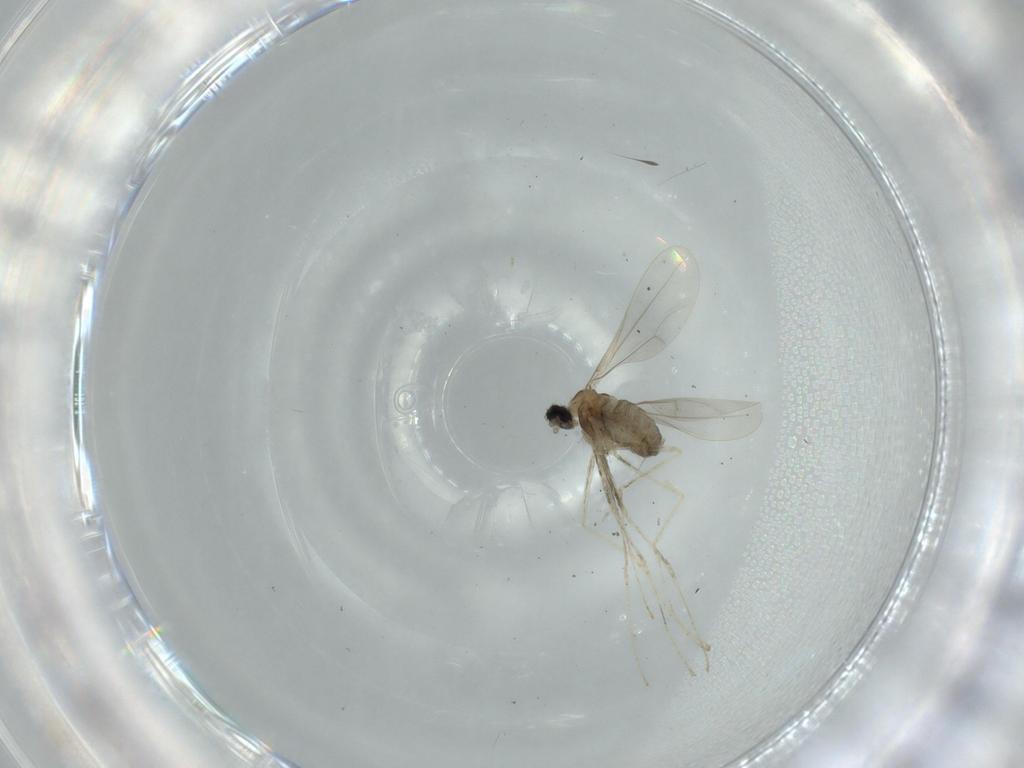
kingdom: Animalia
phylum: Arthropoda
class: Insecta
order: Diptera
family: Cecidomyiidae
